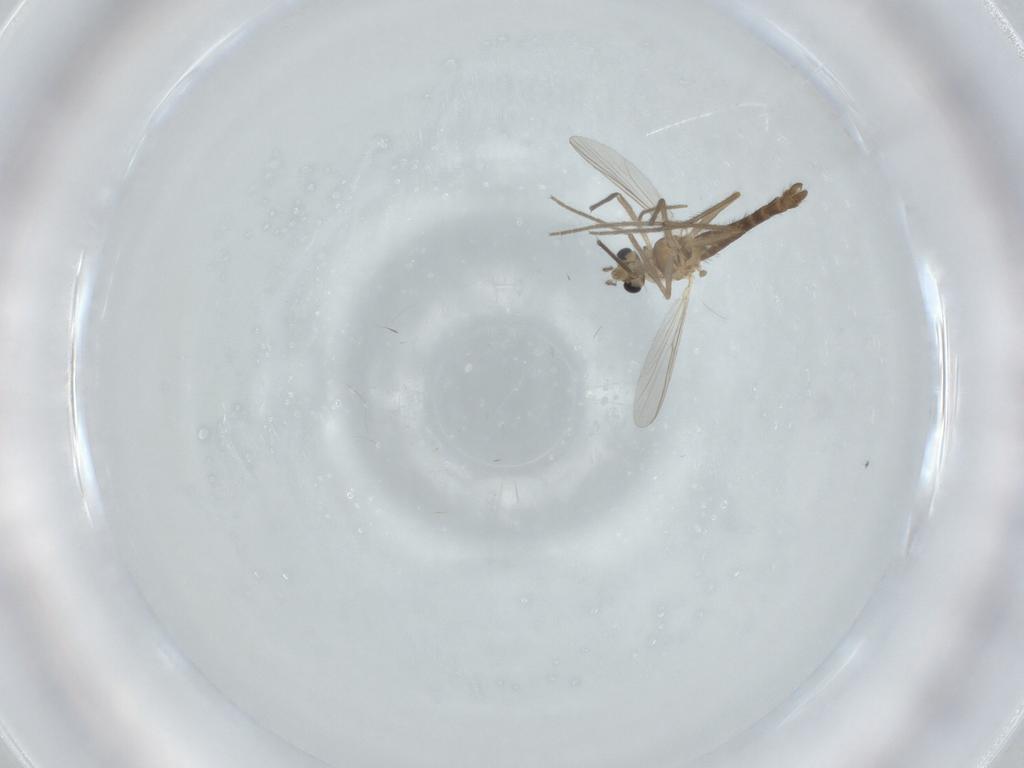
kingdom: Animalia
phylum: Arthropoda
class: Insecta
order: Diptera
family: Chironomidae
